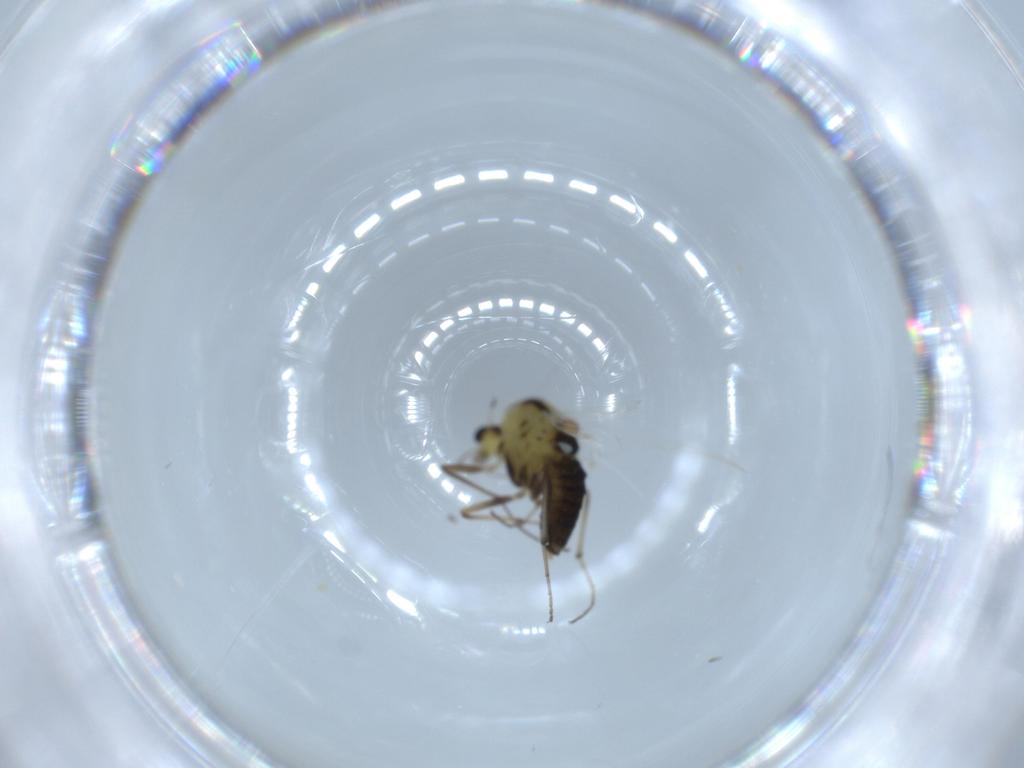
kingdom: Animalia
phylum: Arthropoda
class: Insecta
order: Diptera
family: Chironomidae
